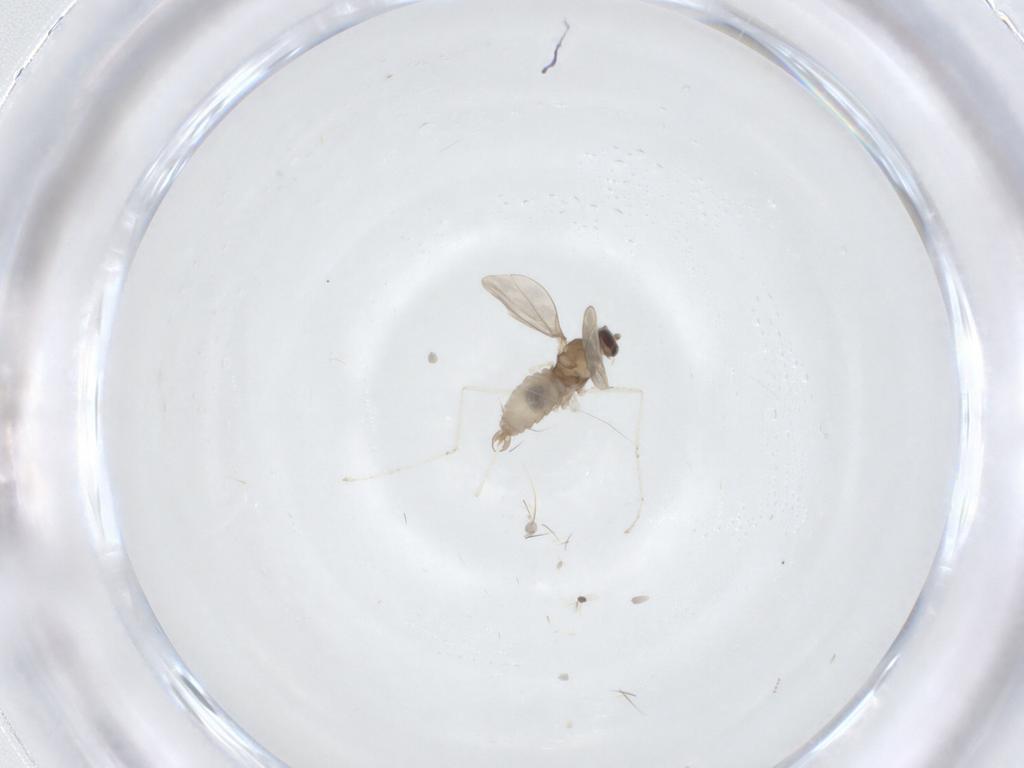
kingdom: Animalia
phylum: Arthropoda
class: Insecta
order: Diptera
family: Cecidomyiidae
